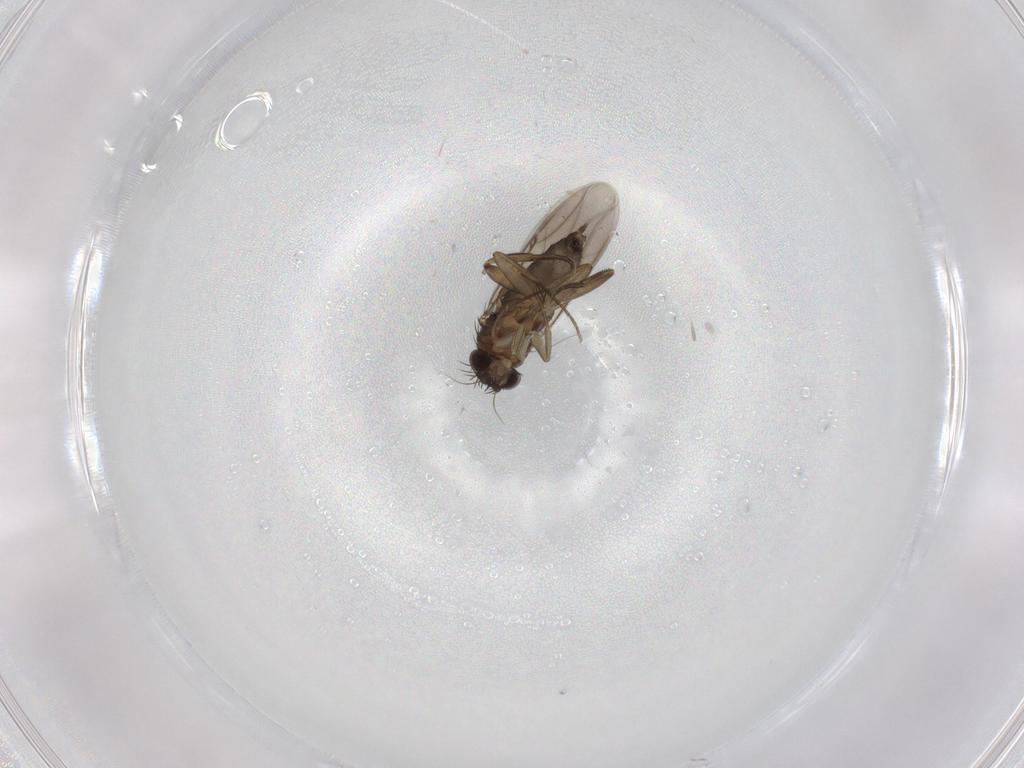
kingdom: Animalia
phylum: Arthropoda
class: Insecta
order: Diptera
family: Phoridae
